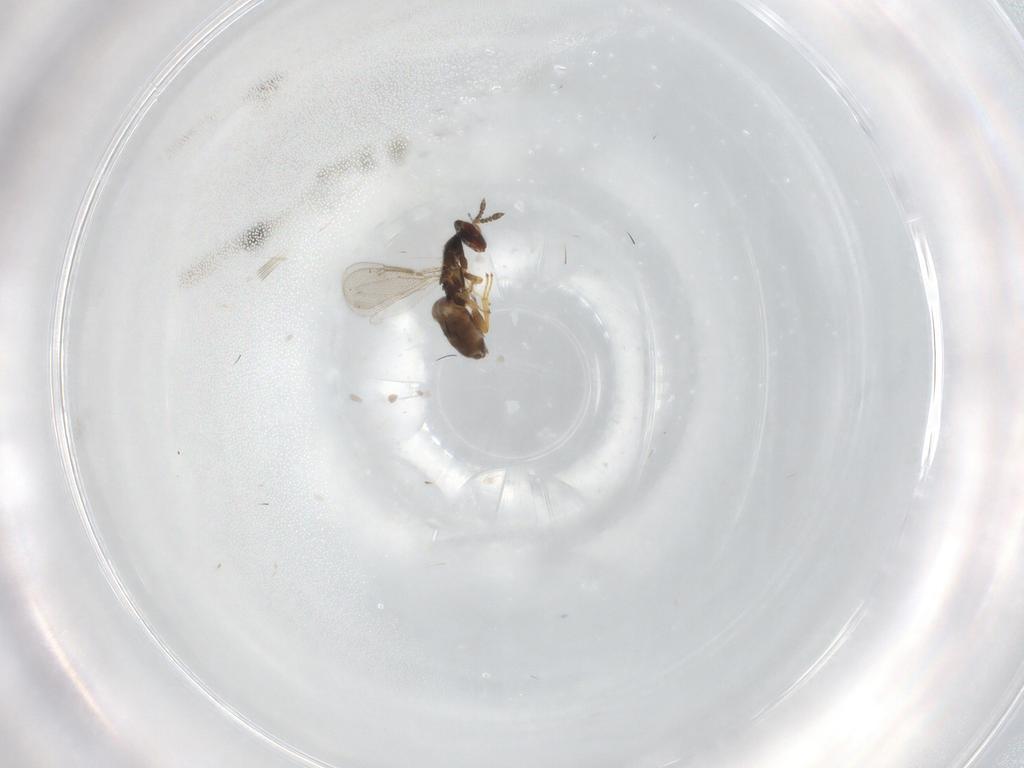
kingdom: Animalia
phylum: Arthropoda
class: Insecta
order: Hymenoptera
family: Eulophidae
